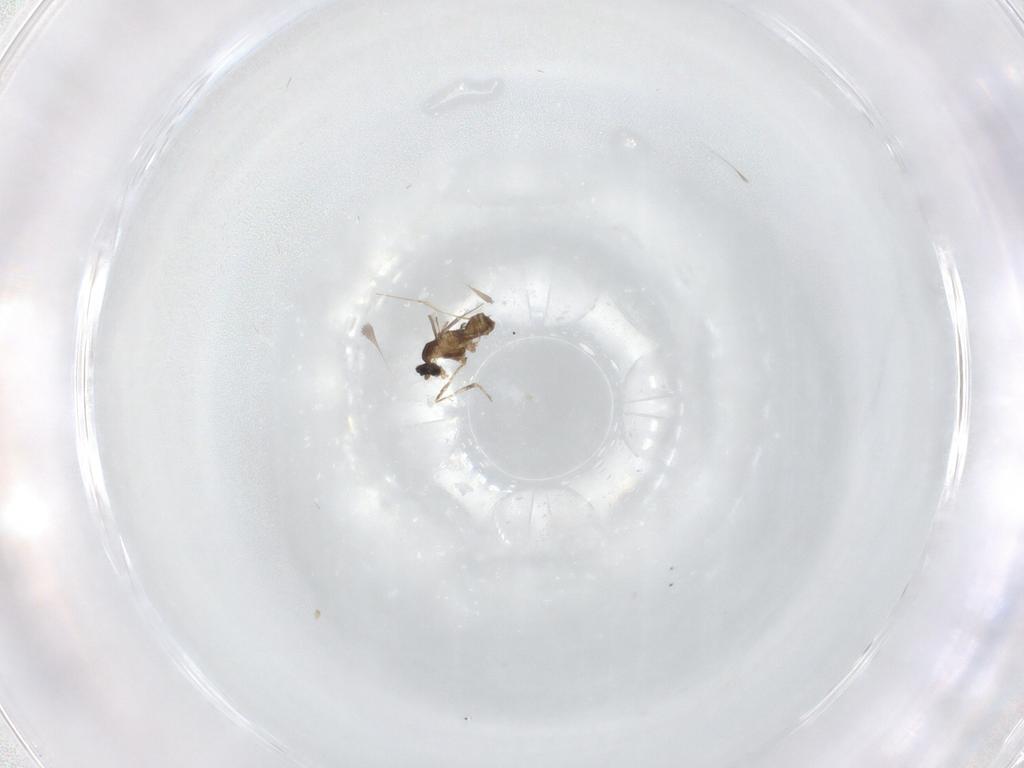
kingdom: Animalia
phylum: Arthropoda
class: Insecta
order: Diptera
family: Cecidomyiidae
